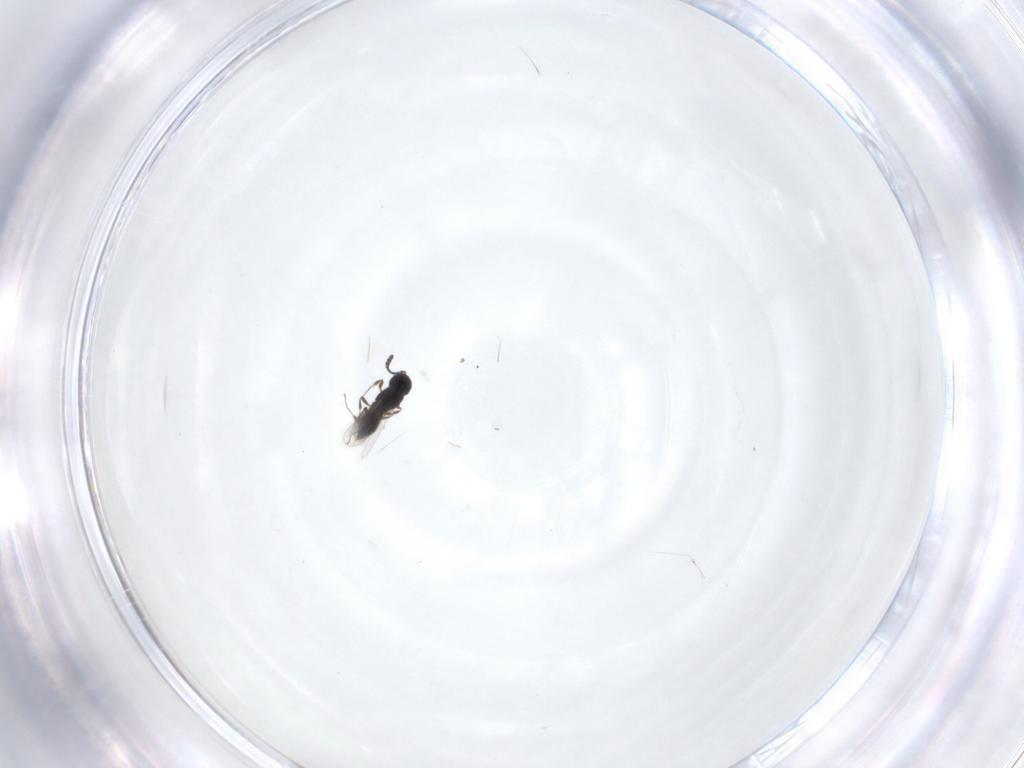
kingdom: Animalia
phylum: Arthropoda
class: Insecta
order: Hymenoptera
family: Scelionidae
